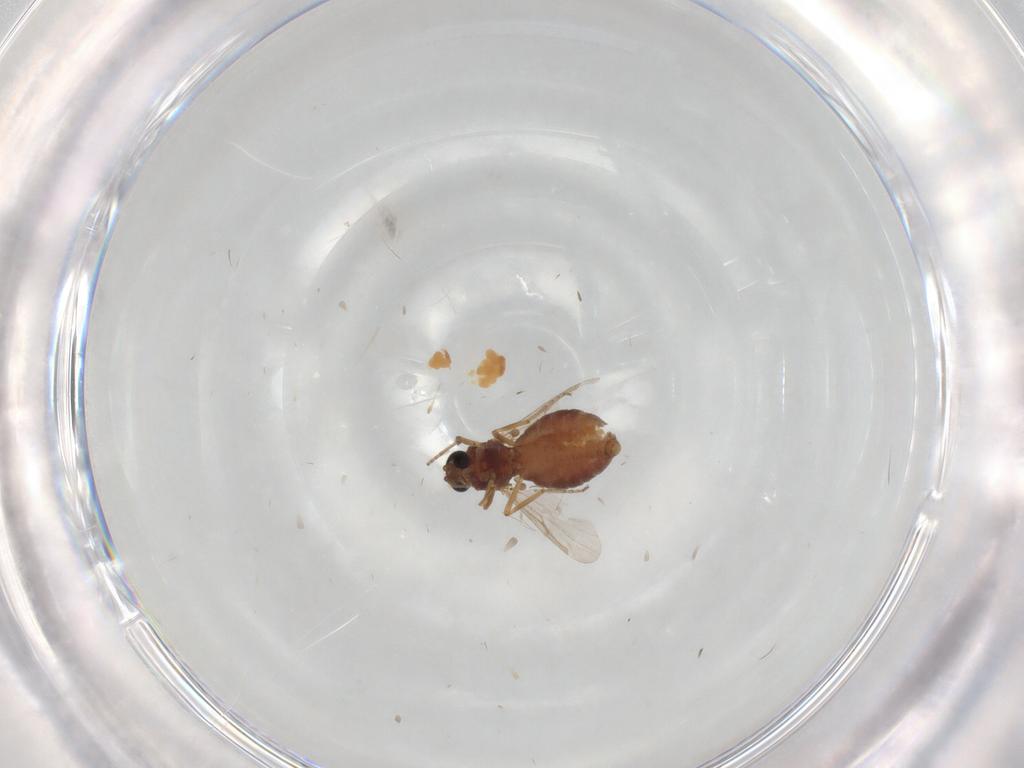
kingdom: Animalia
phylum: Arthropoda
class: Insecta
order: Diptera
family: Ceratopogonidae
